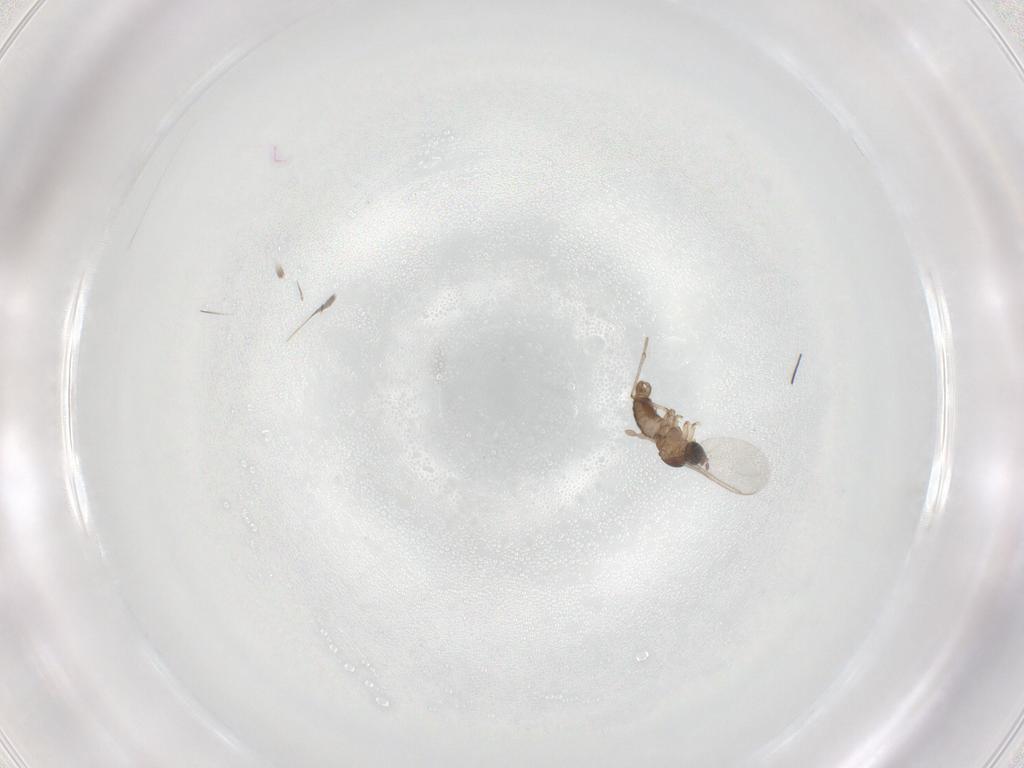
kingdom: Animalia
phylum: Arthropoda
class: Insecta
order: Diptera
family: Sciaridae
